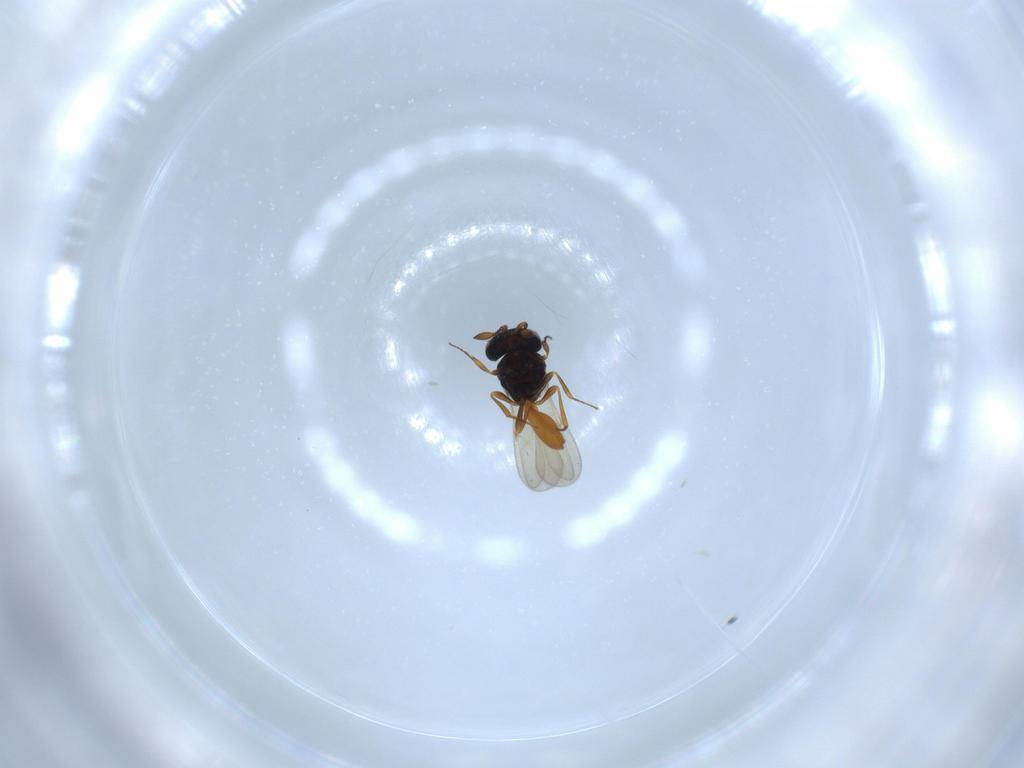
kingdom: Animalia
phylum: Arthropoda
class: Insecta
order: Hymenoptera
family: Scelionidae
